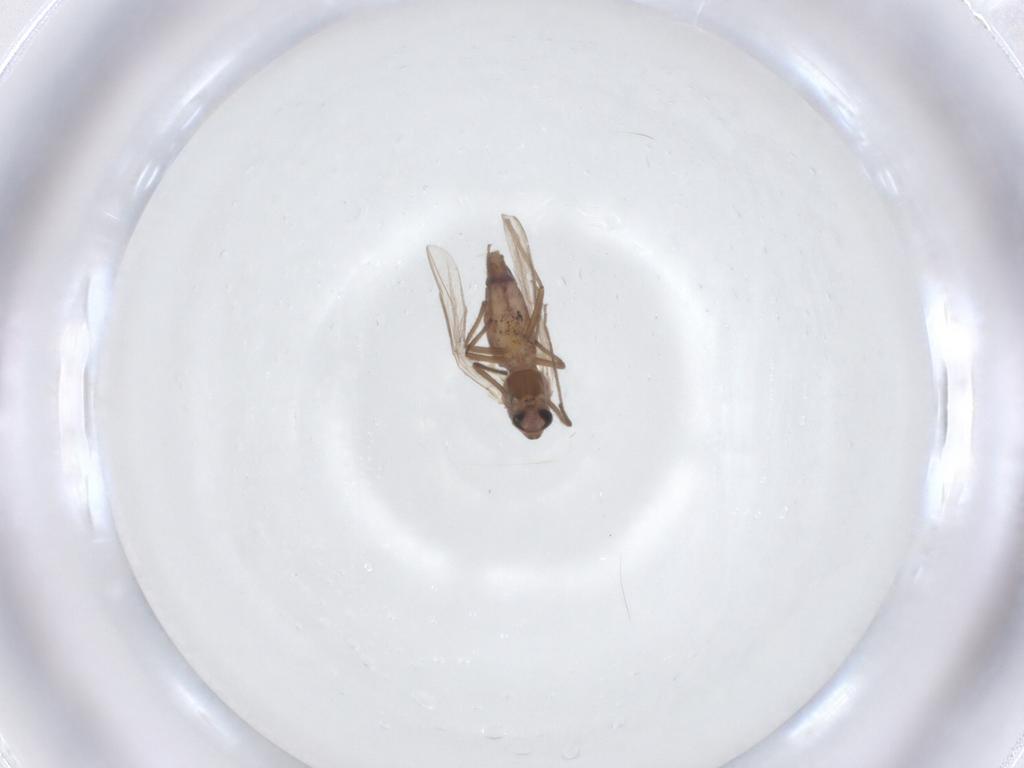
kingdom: Animalia
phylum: Arthropoda
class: Insecta
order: Diptera
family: Chironomidae
